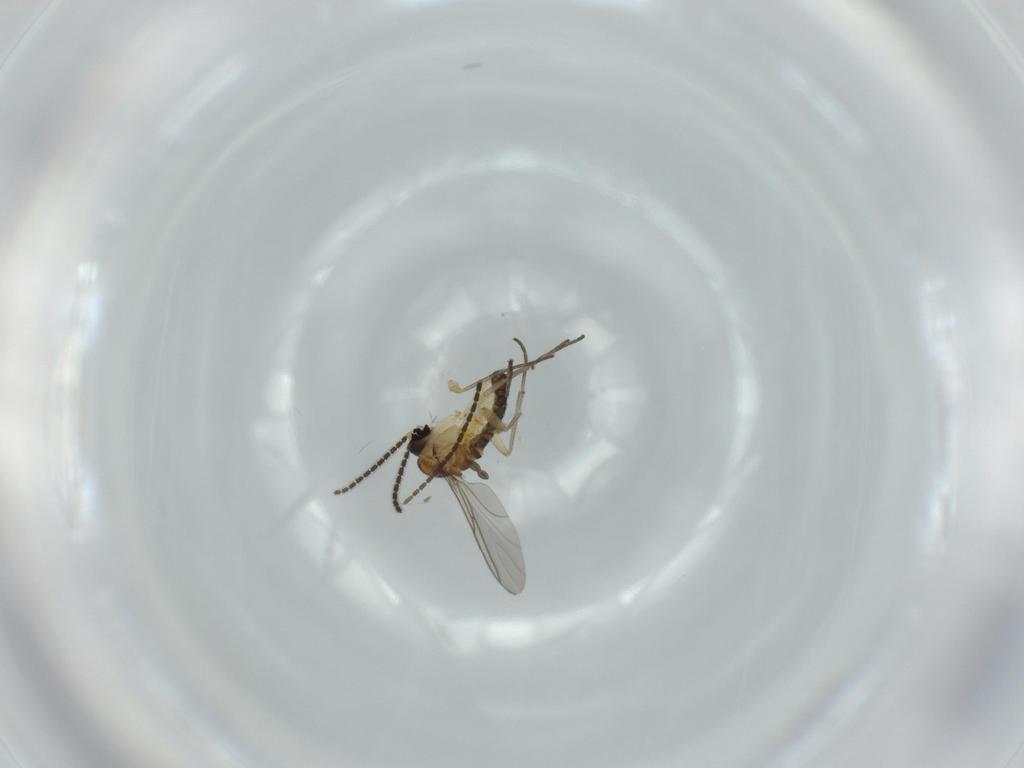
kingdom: Animalia
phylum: Arthropoda
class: Insecta
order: Diptera
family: Sciaridae
